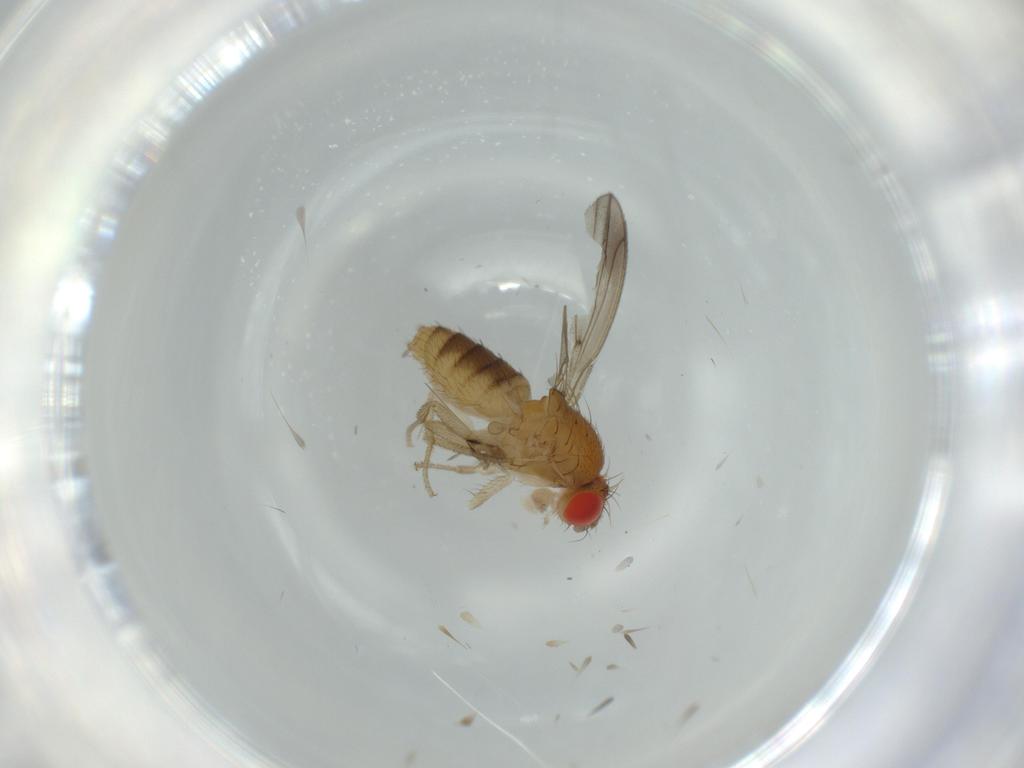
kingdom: Animalia
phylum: Arthropoda
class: Insecta
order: Diptera
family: Drosophilidae
